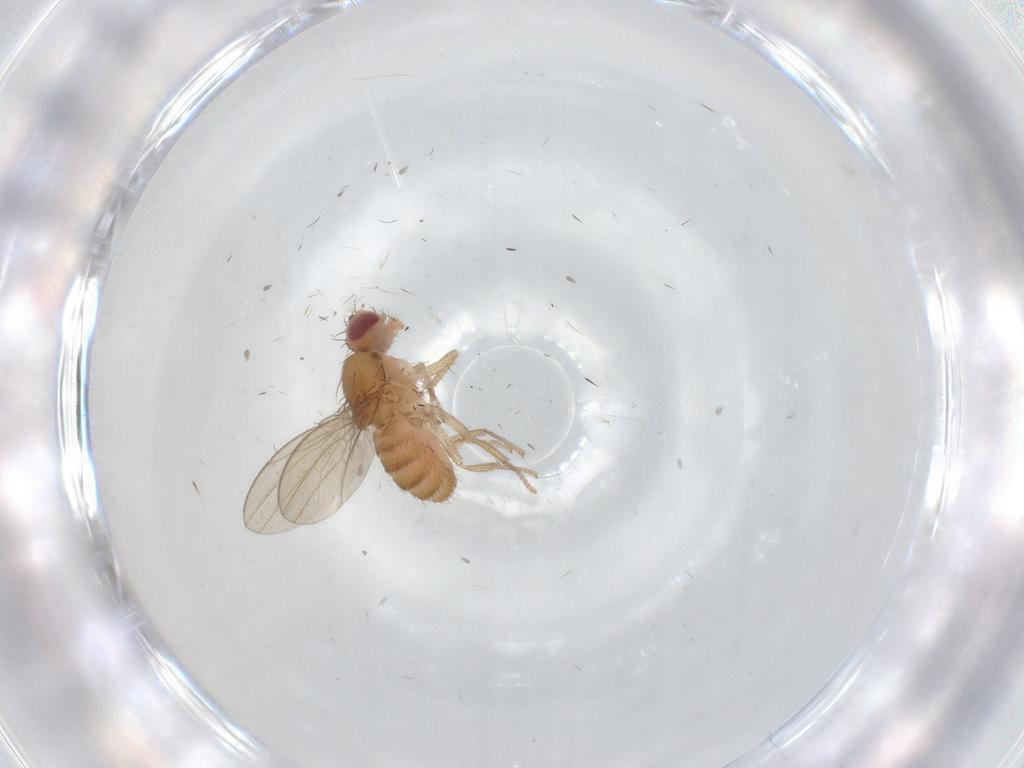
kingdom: Animalia
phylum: Arthropoda
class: Insecta
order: Diptera
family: Drosophilidae
